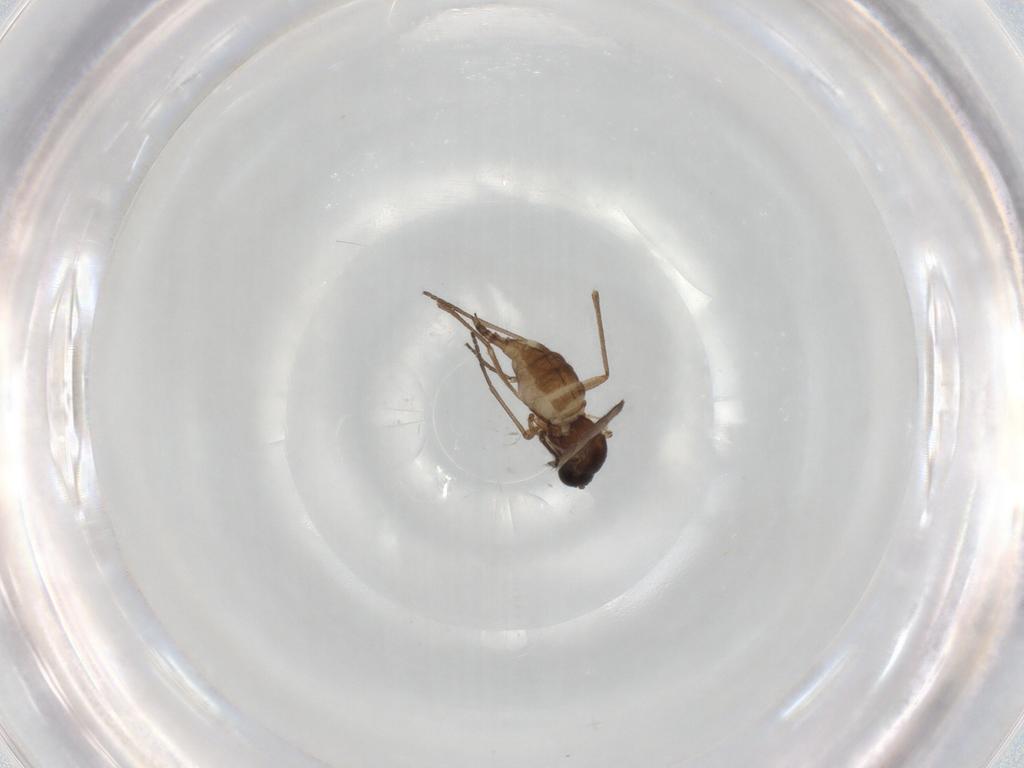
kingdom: Animalia
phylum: Arthropoda
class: Insecta
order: Diptera
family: Sciaridae
